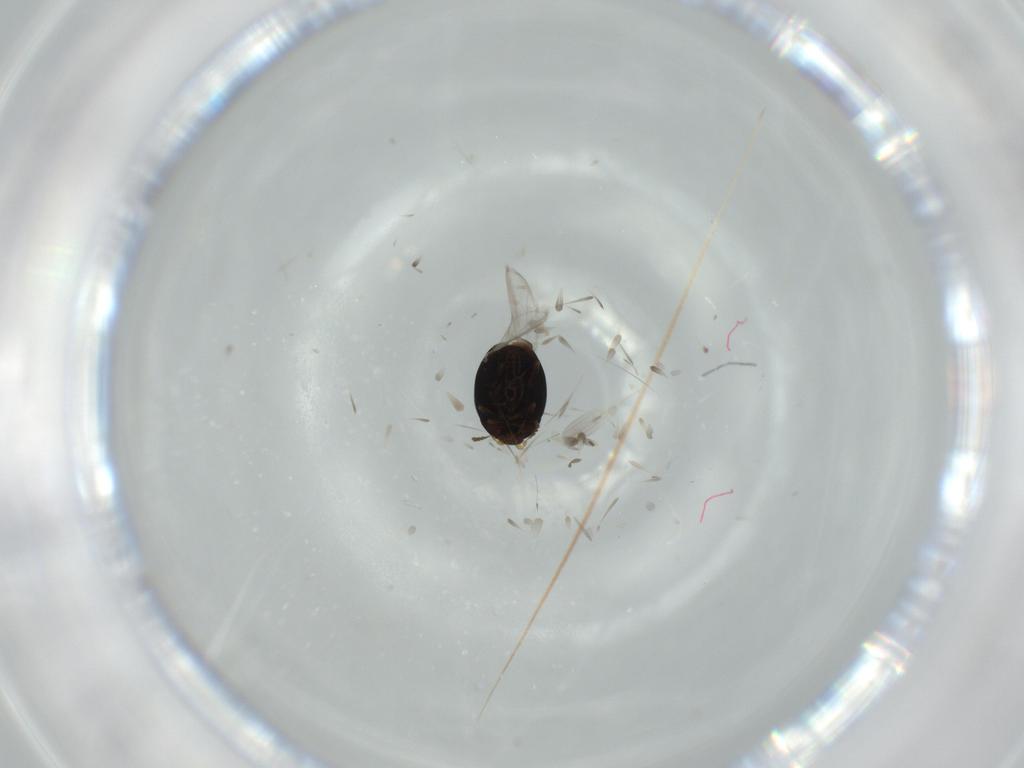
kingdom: Animalia
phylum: Arthropoda
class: Insecta
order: Coleoptera
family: Corylophidae
